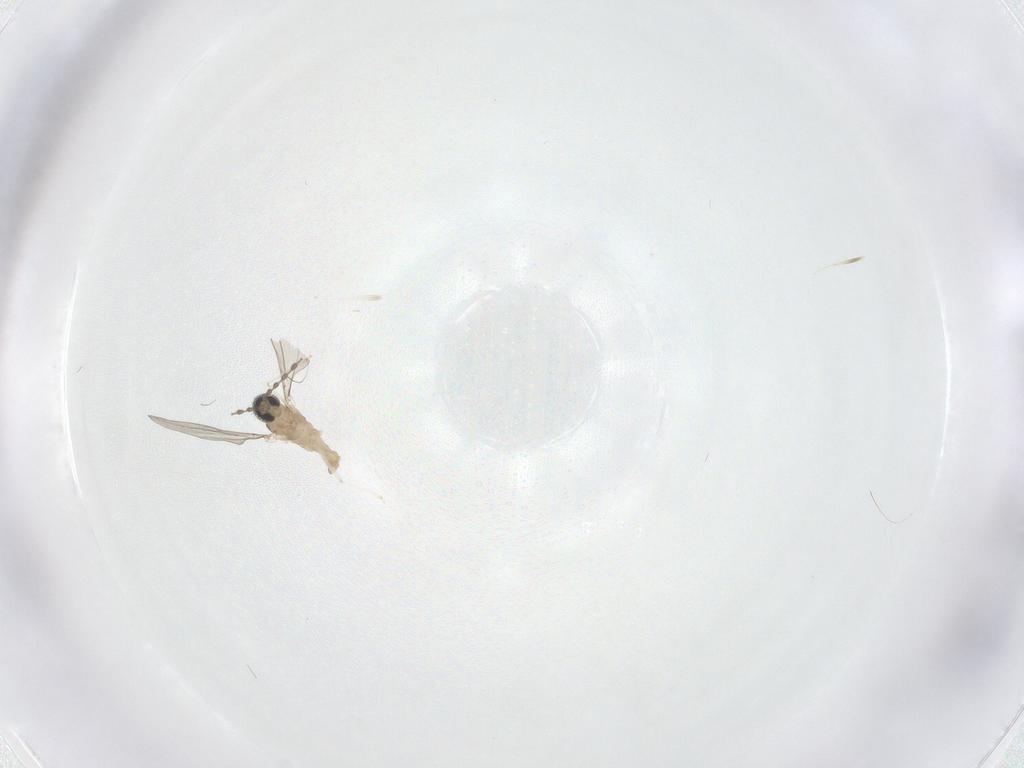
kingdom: Animalia
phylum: Arthropoda
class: Insecta
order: Diptera
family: Cecidomyiidae
